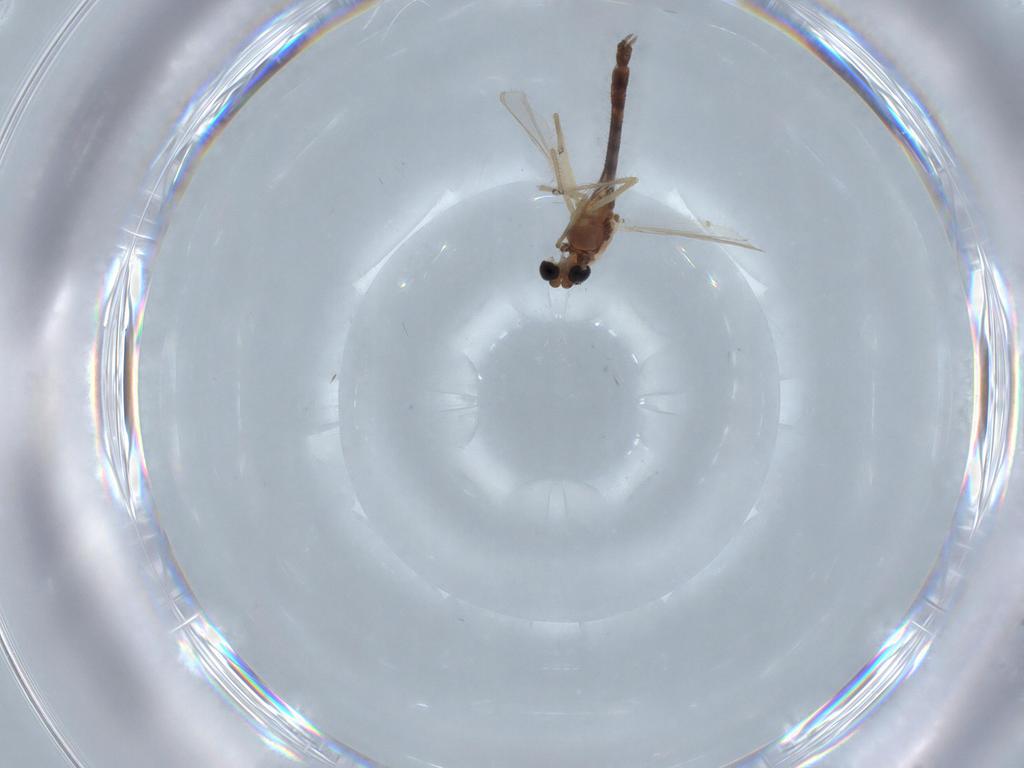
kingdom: Animalia
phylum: Arthropoda
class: Insecta
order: Diptera
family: Chironomidae
